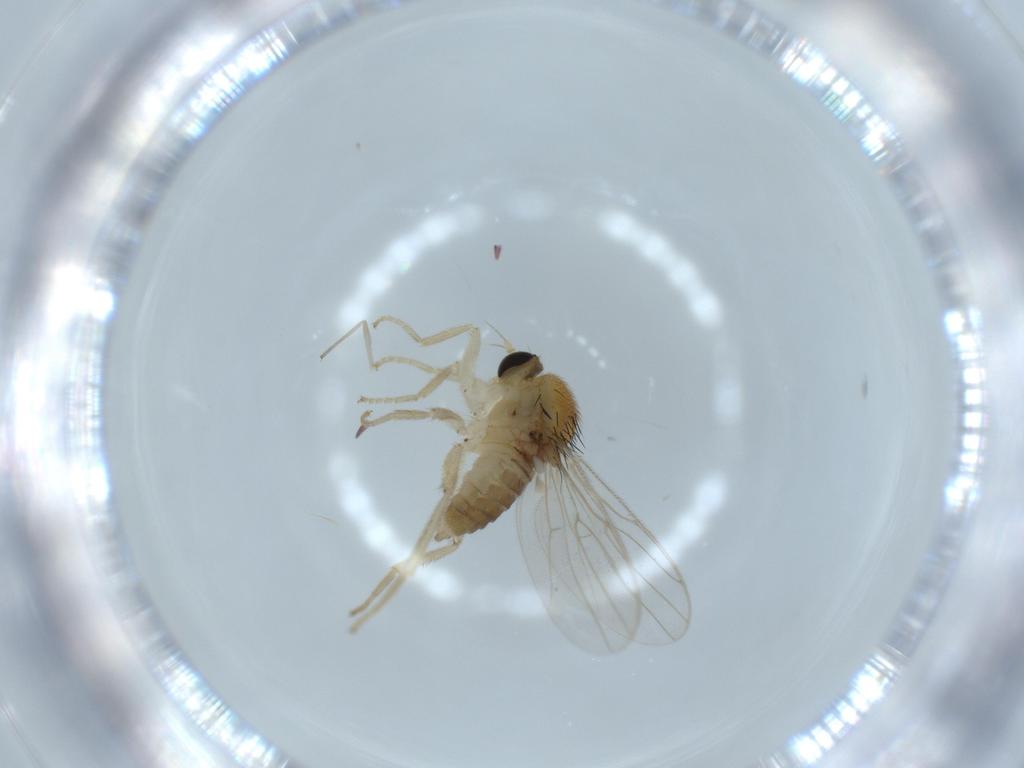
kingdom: Animalia
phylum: Arthropoda
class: Insecta
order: Diptera
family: Hybotidae
